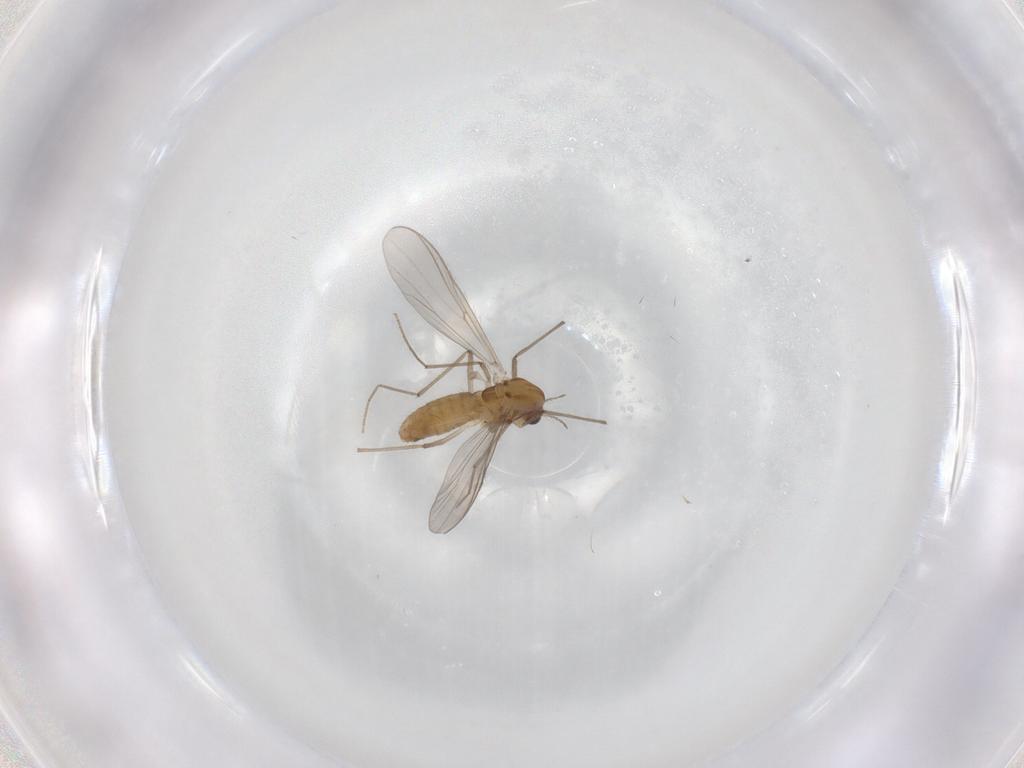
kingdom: Animalia
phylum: Arthropoda
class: Insecta
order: Diptera
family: Chironomidae
